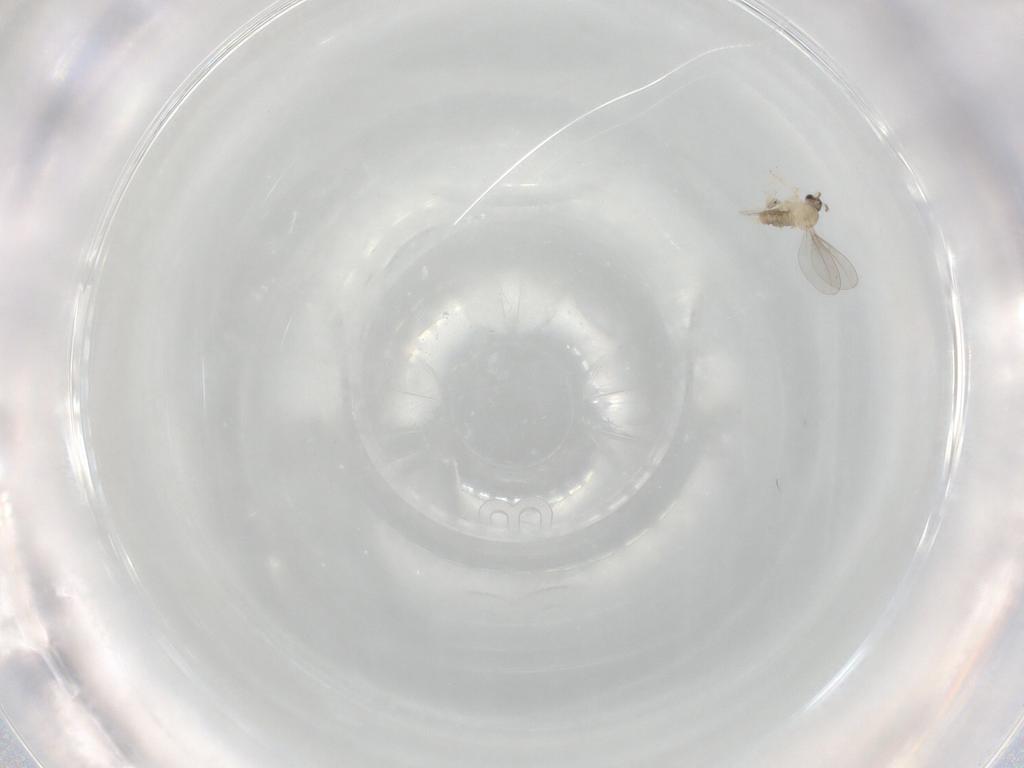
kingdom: Animalia
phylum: Arthropoda
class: Insecta
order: Diptera
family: Cecidomyiidae
